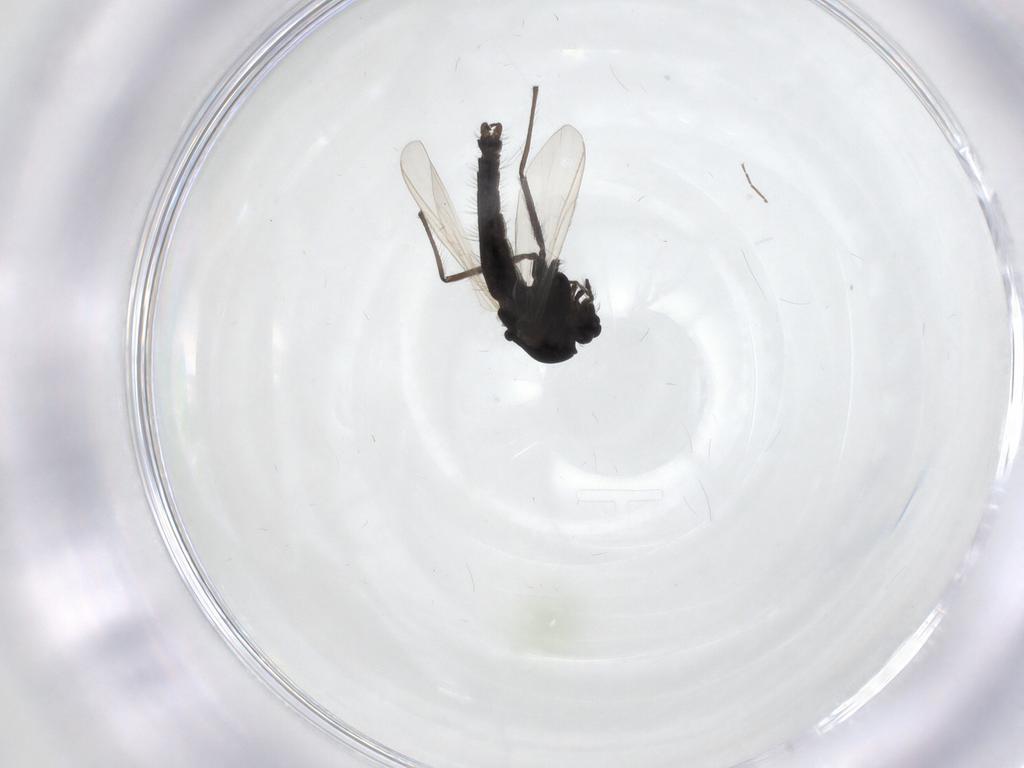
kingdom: Animalia
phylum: Arthropoda
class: Insecta
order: Diptera
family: Chironomidae
